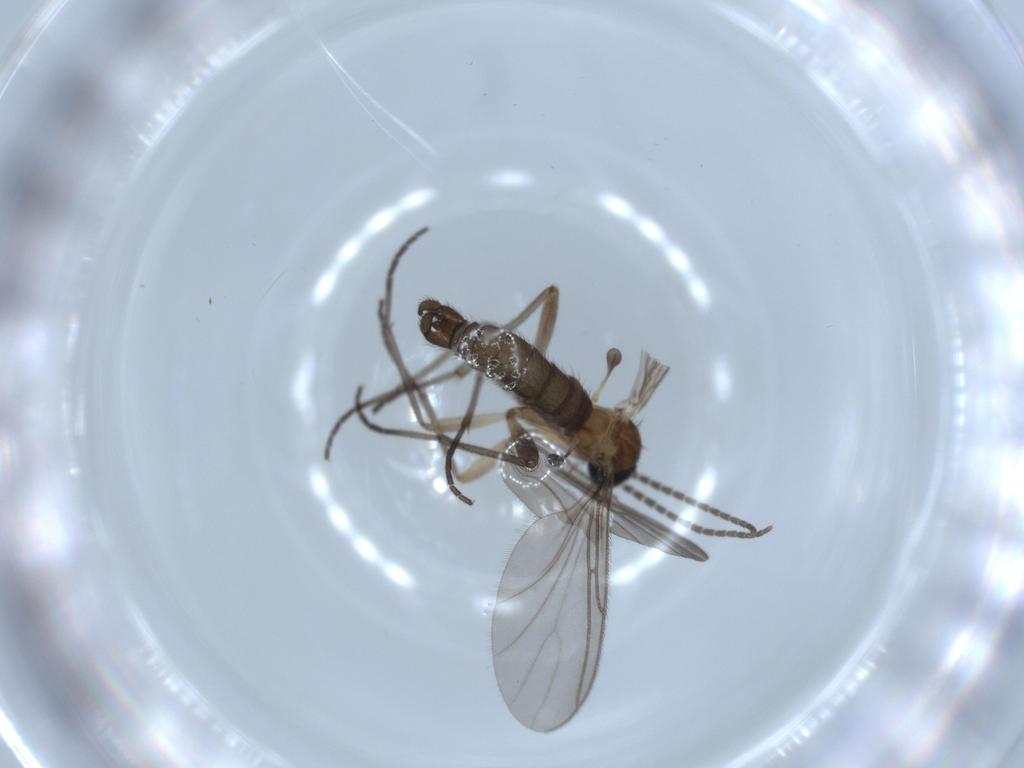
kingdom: Animalia
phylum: Arthropoda
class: Insecta
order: Diptera
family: Sciaridae
